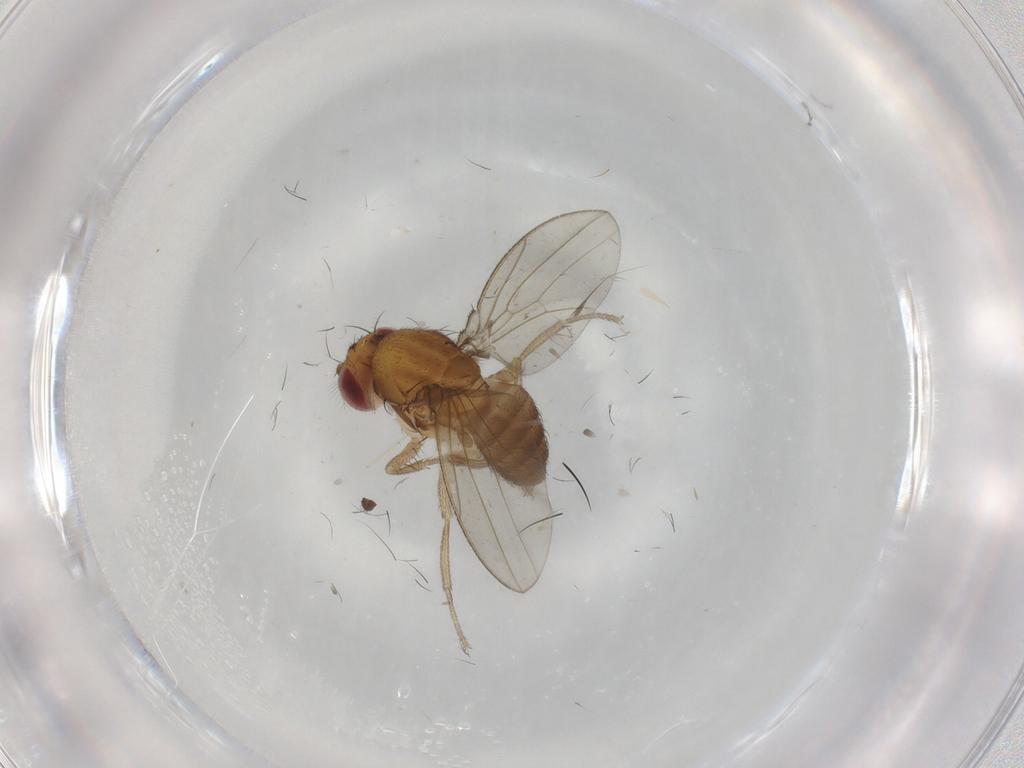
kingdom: Animalia
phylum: Arthropoda
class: Insecta
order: Diptera
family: Drosophilidae
